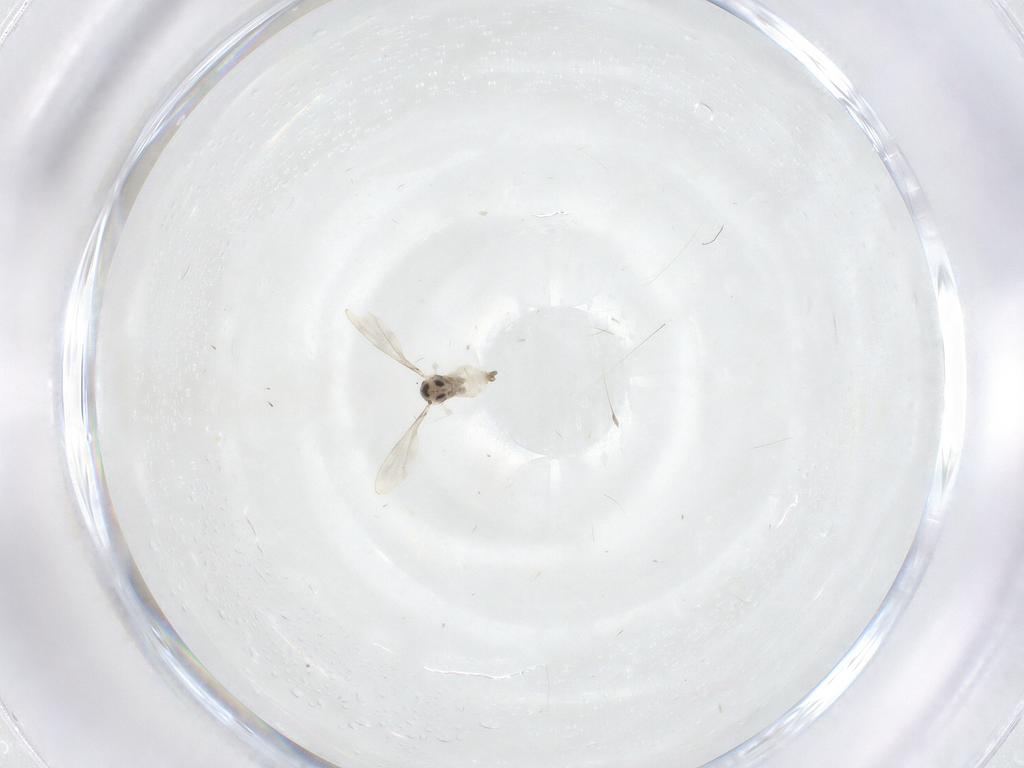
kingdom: Animalia
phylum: Arthropoda
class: Insecta
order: Diptera
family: Cecidomyiidae
